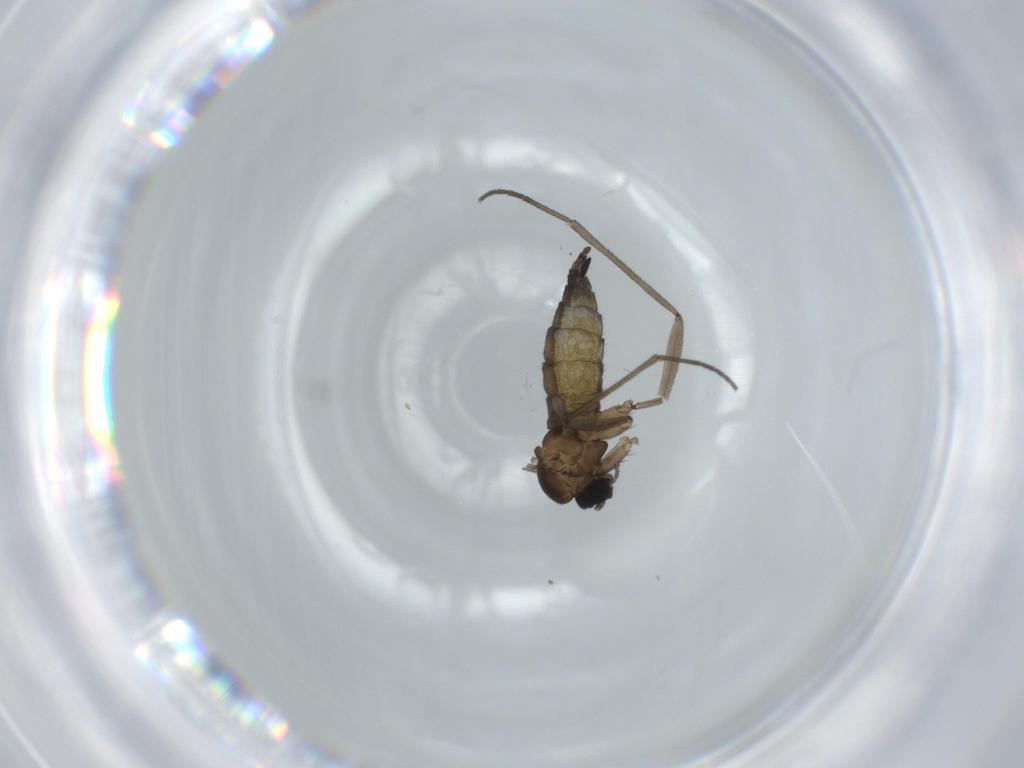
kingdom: Animalia
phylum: Arthropoda
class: Insecta
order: Diptera
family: Sciaridae
